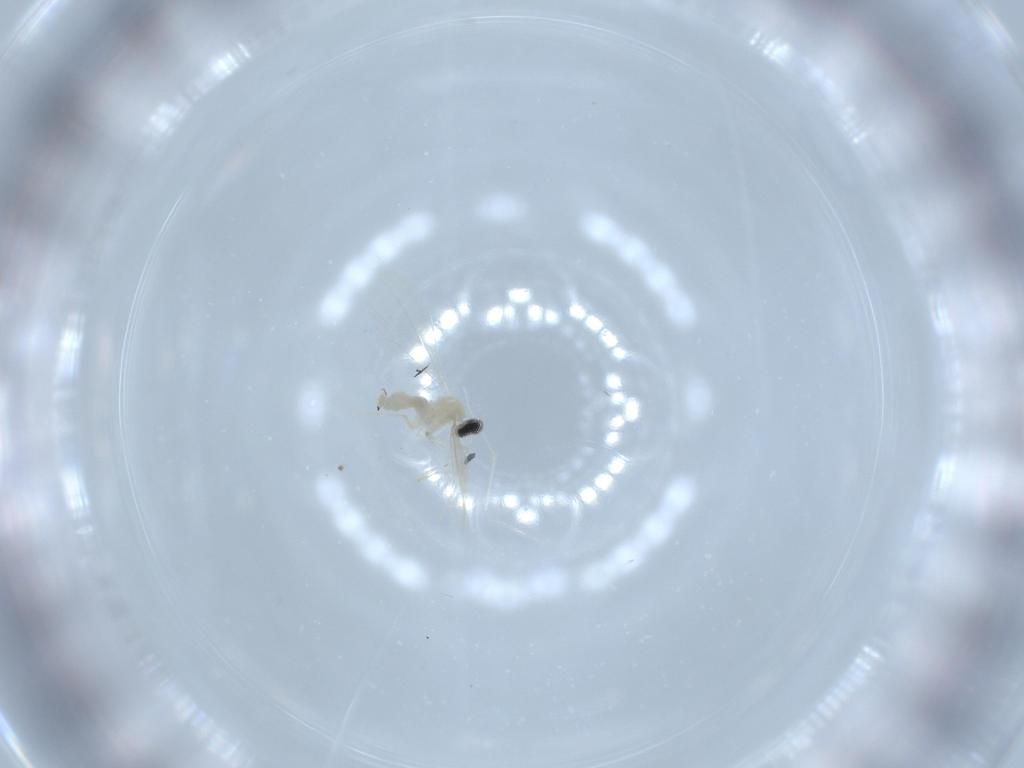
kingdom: Animalia
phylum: Arthropoda
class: Insecta
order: Diptera
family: Cecidomyiidae
